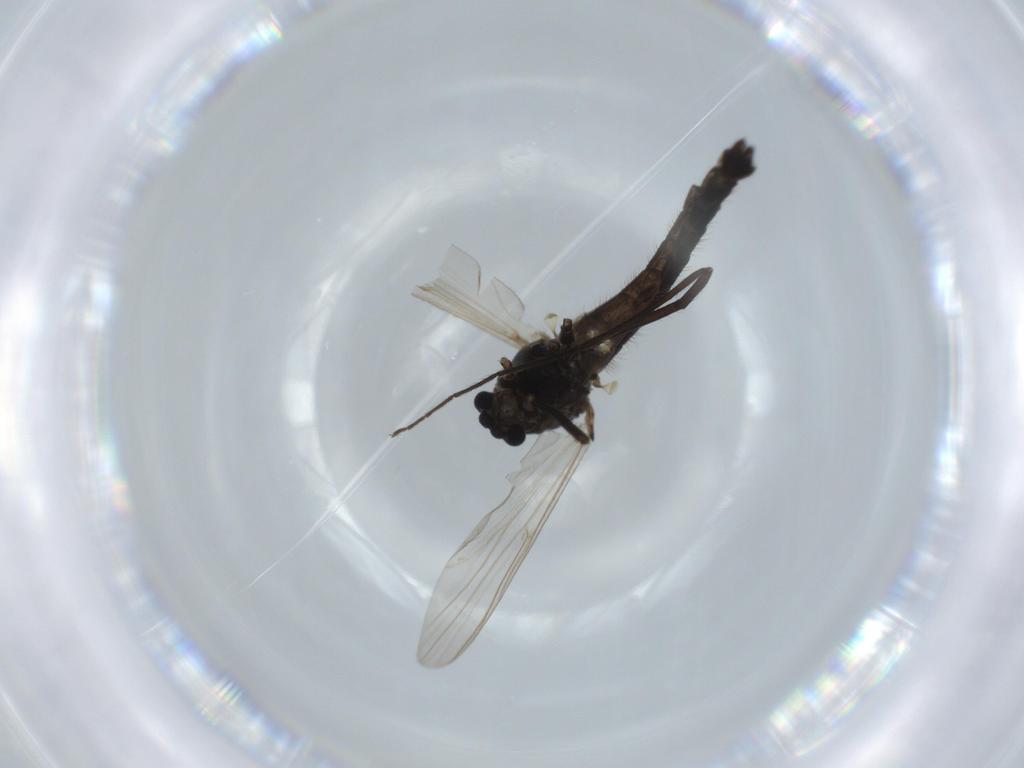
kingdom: Animalia
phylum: Arthropoda
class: Insecta
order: Diptera
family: Chironomidae
